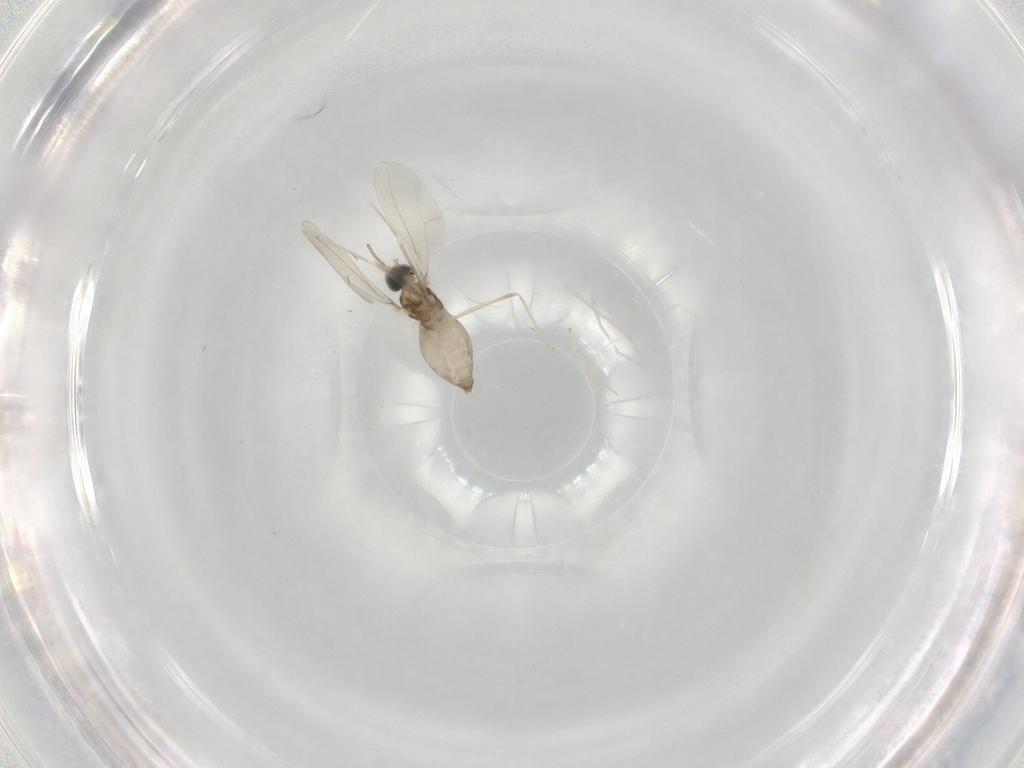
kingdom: Animalia
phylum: Arthropoda
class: Insecta
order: Diptera
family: Cecidomyiidae
